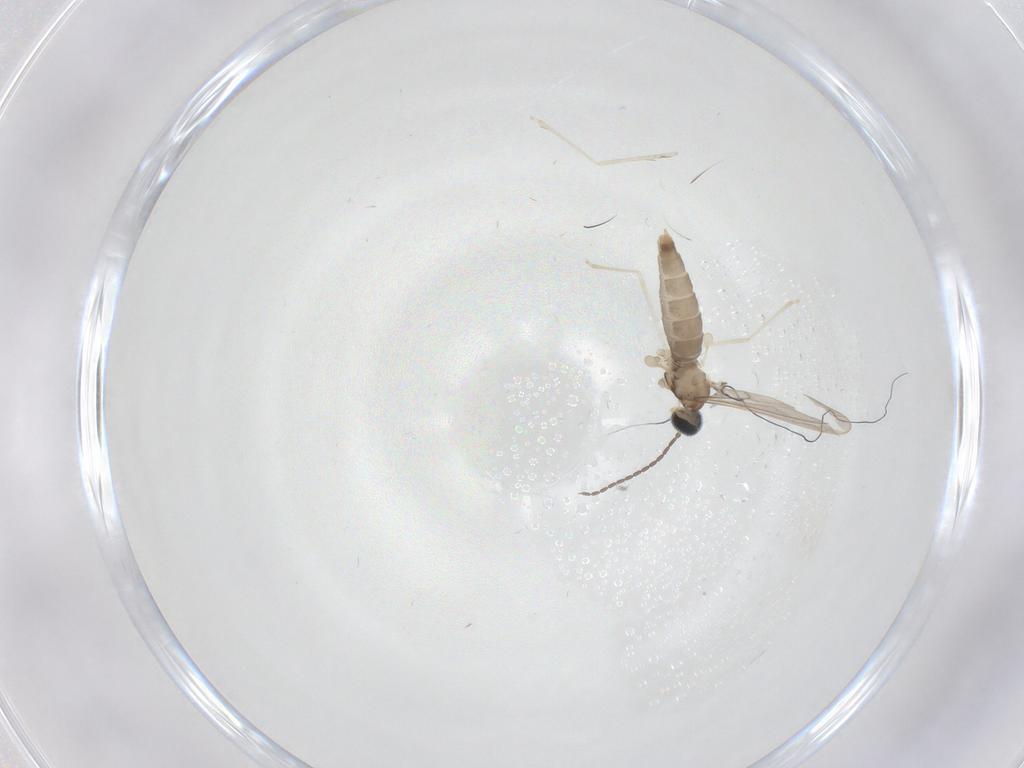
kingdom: Animalia
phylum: Arthropoda
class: Insecta
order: Diptera
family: Cecidomyiidae
